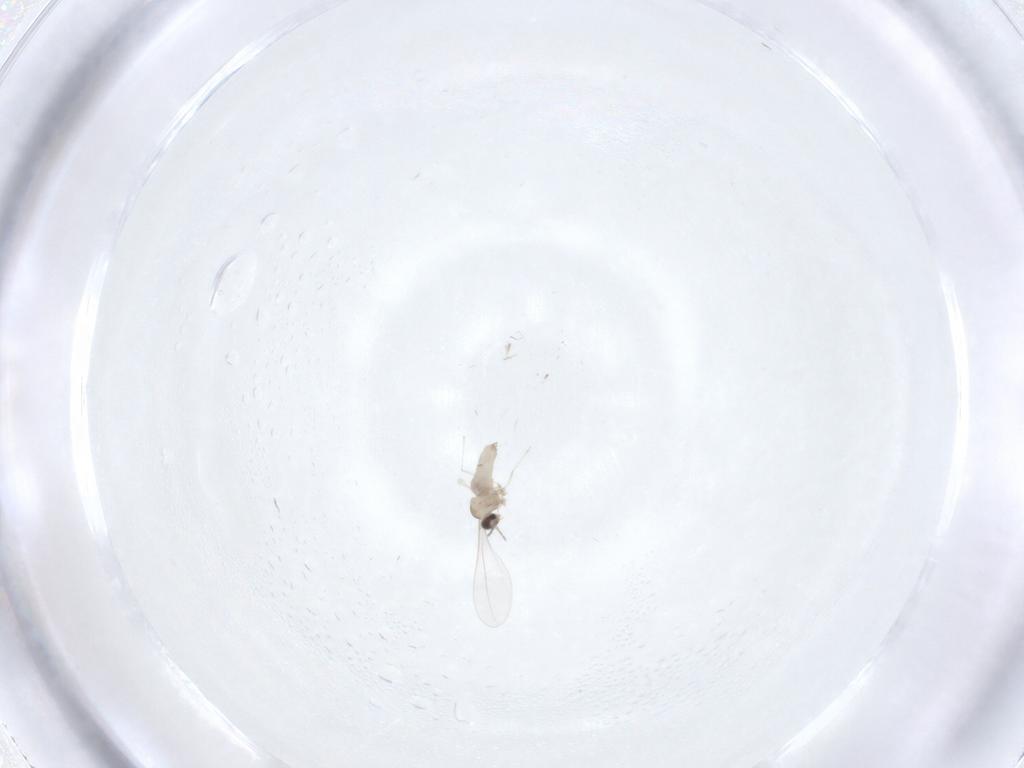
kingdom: Animalia
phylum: Arthropoda
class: Insecta
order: Diptera
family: Cecidomyiidae
